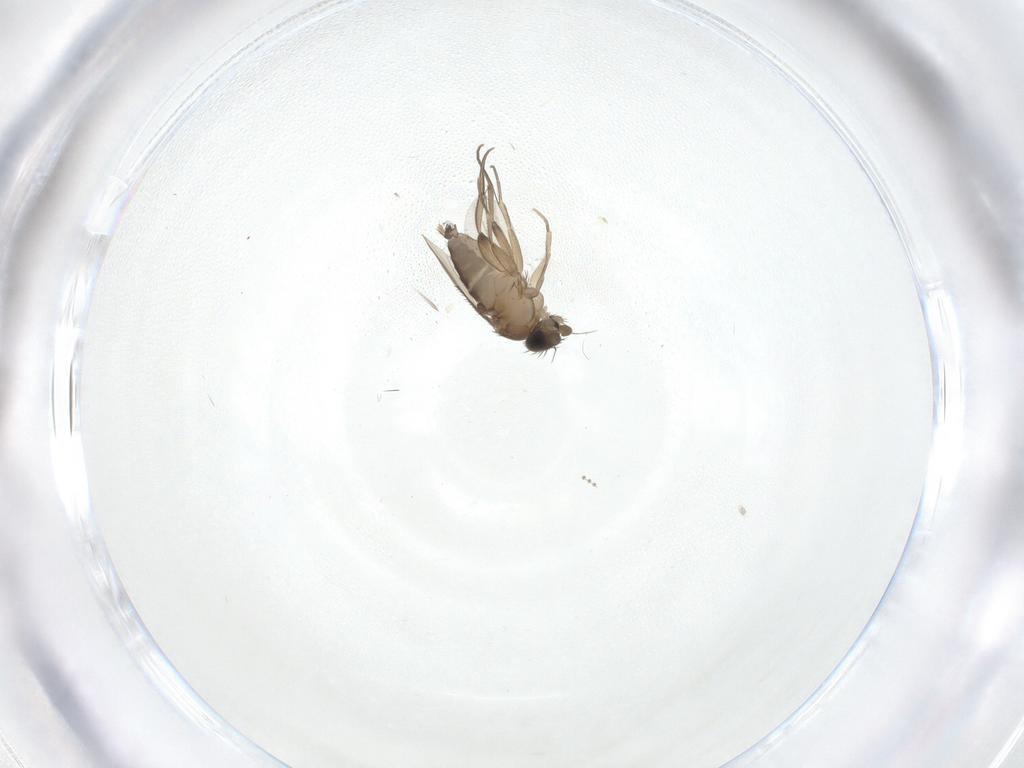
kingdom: Animalia
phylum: Arthropoda
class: Insecta
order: Diptera
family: Phoridae
